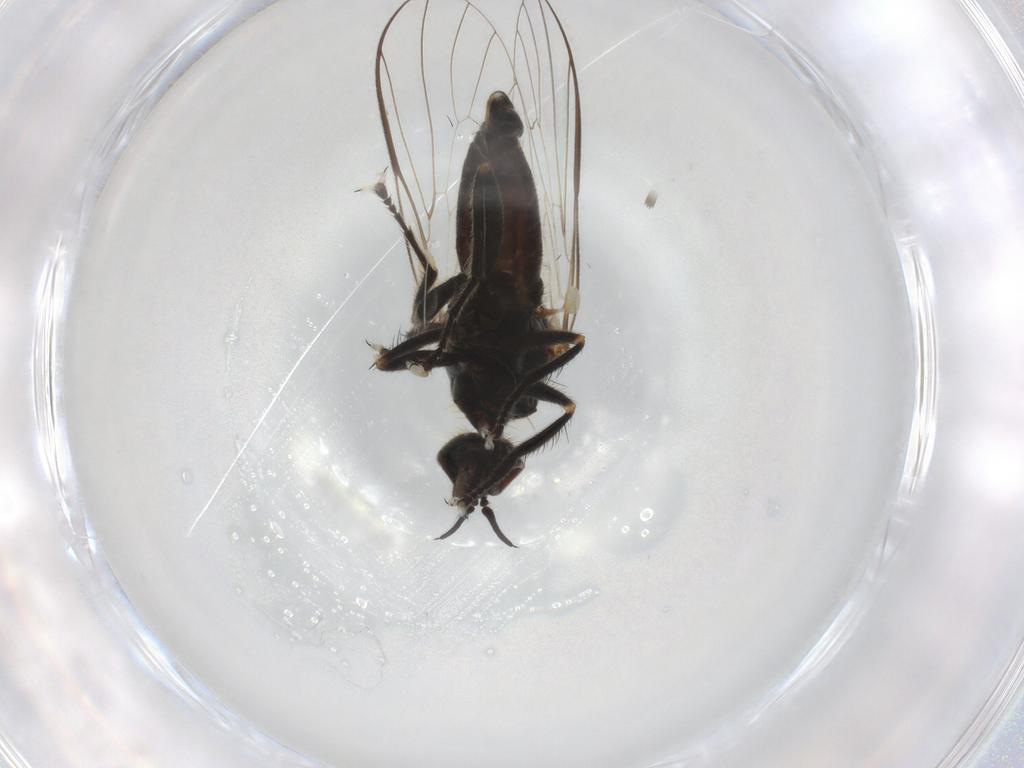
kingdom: Animalia
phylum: Arthropoda
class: Insecta
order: Diptera
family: Empididae
